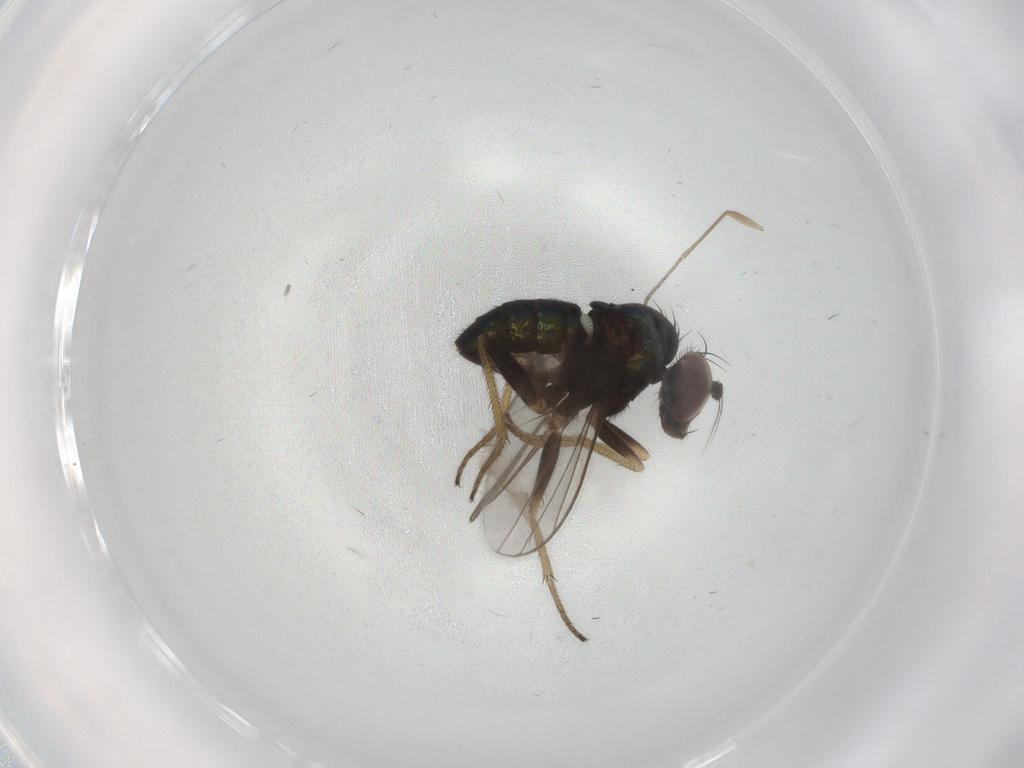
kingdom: Animalia
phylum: Arthropoda
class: Insecta
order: Diptera
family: Dolichopodidae
